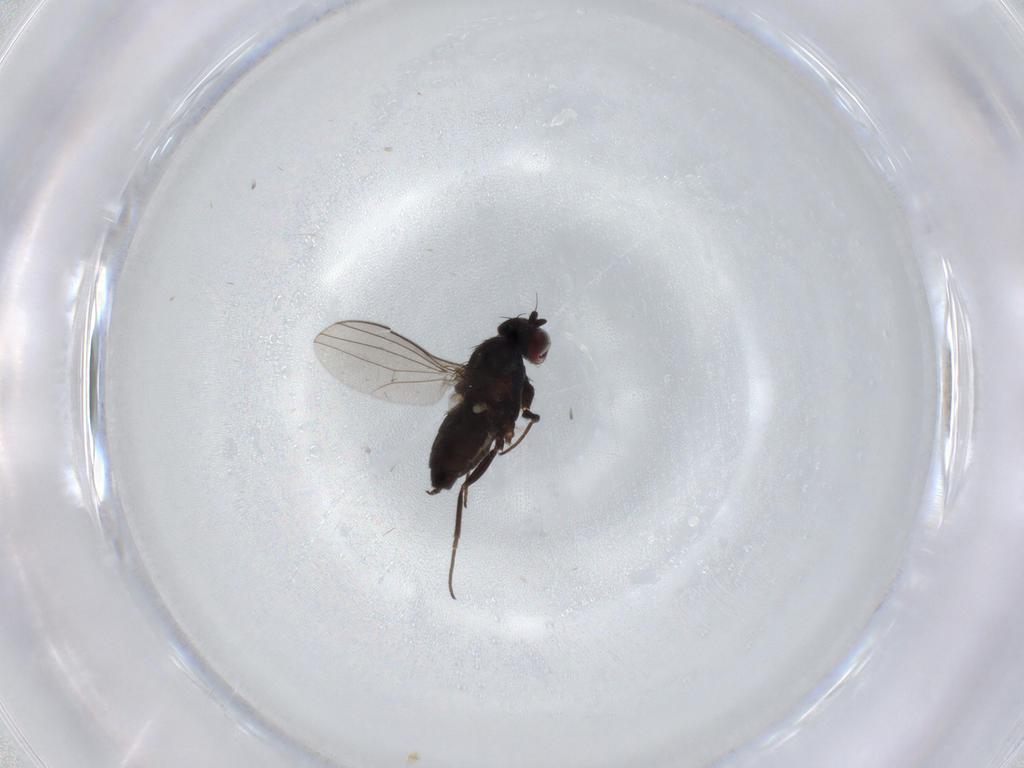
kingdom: Animalia
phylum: Arthropoda
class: Insecta
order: Diptera
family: Dolichopodidae
